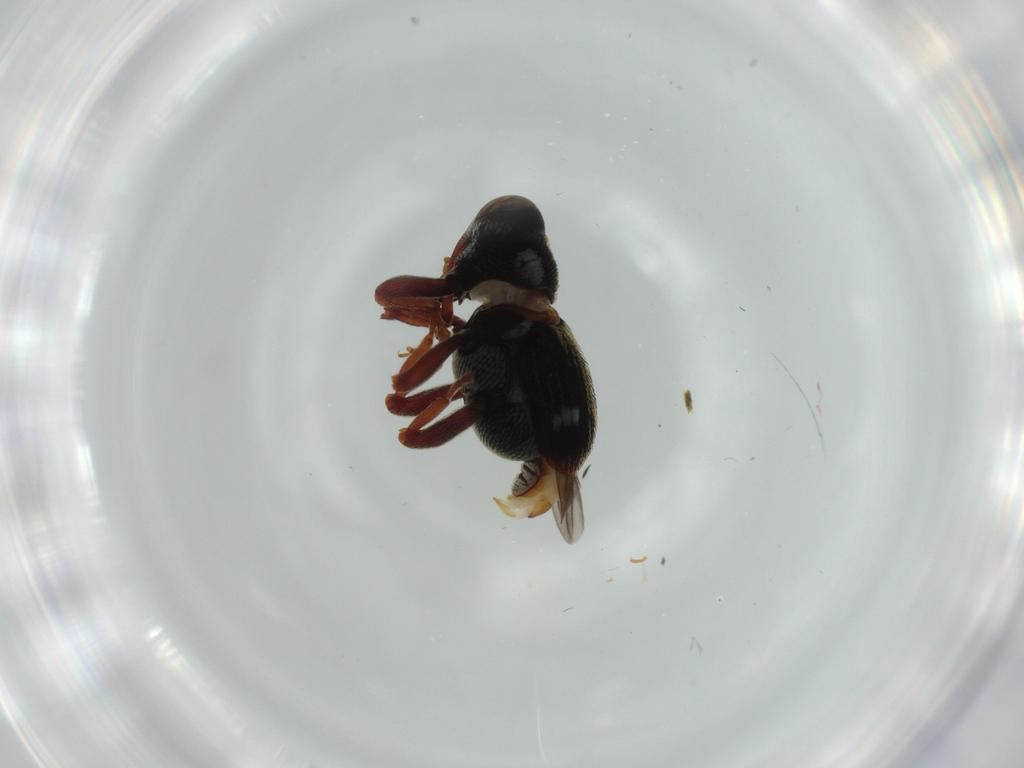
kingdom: Animalia
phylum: Arthropoda
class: Insecta
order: Coleoptera
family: Curculionidae
